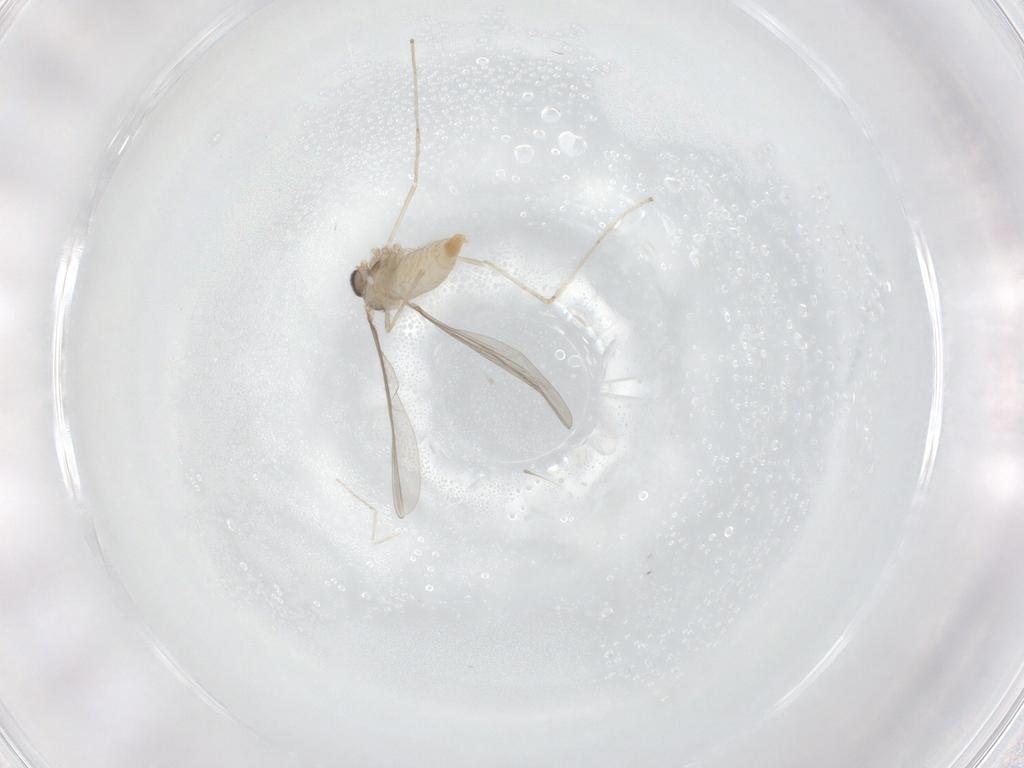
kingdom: Animalia
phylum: Arthropoda
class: Insecta
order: Diptera
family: Cecidomyiidae
